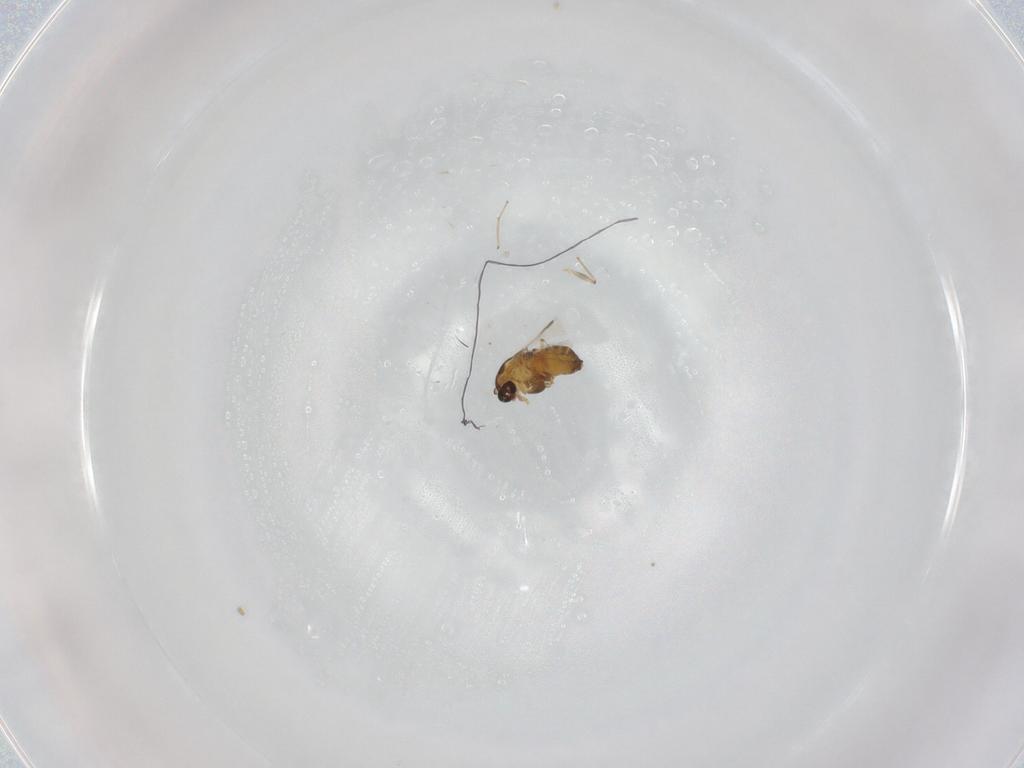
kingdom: Animalia
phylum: Arthropoda
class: Insecta
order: Diptera
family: Chironomidae
